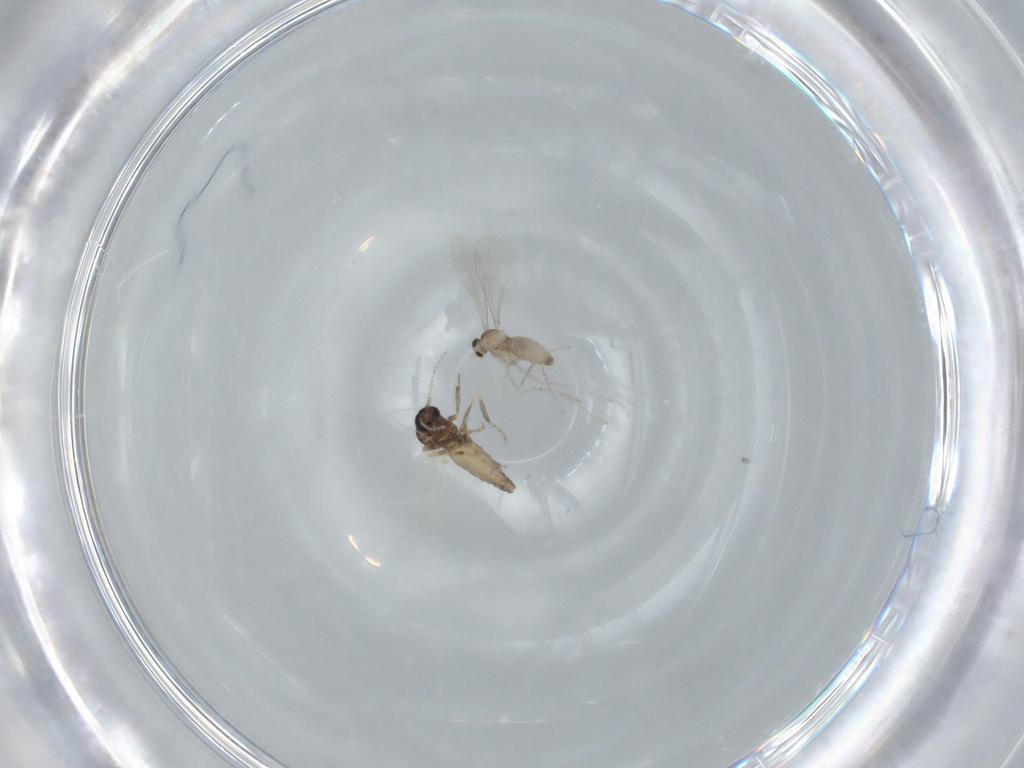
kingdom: Animalia
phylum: Arthropoda
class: Insecta
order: Diptera
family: Cecidomyiidae
